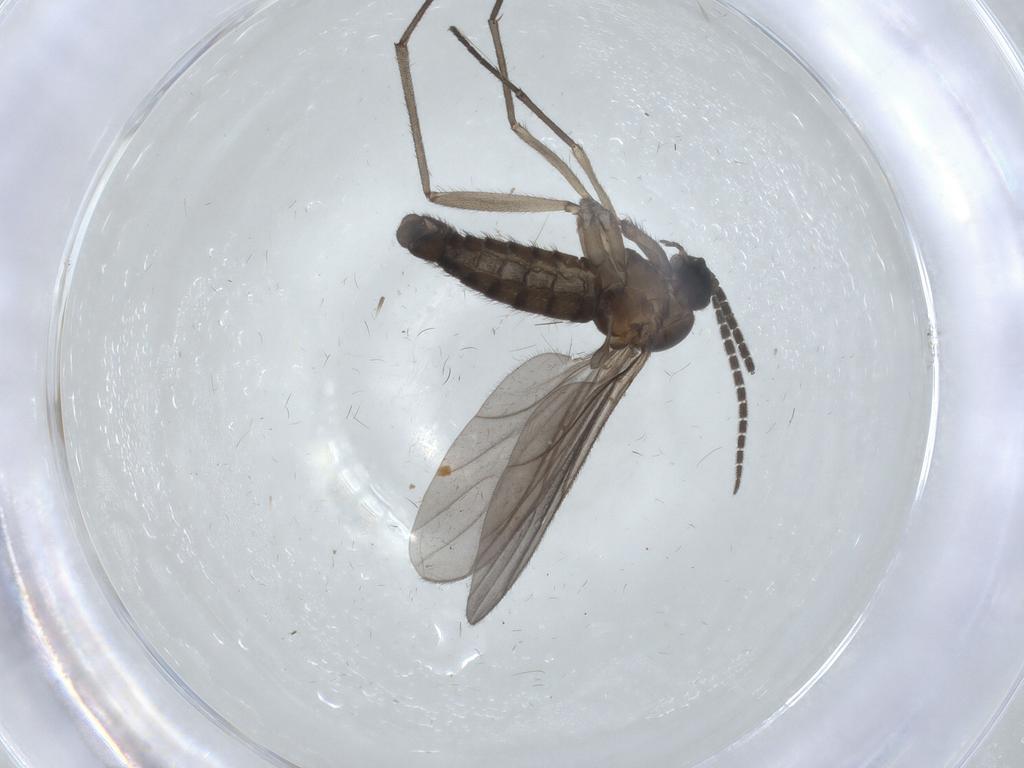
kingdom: Animalia
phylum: Arthropoda
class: Insecta
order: Diptera
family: Sciaridae
